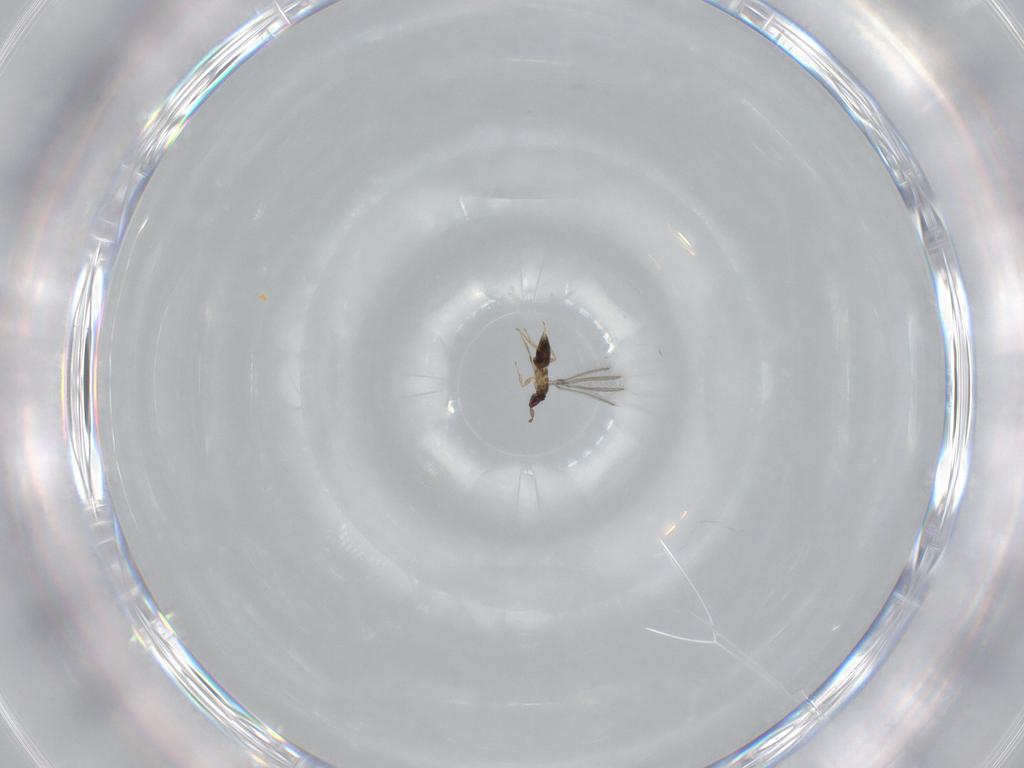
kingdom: Animalia
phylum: Arthropoda
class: Insecta
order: Hymenoptera
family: Mymaridae
